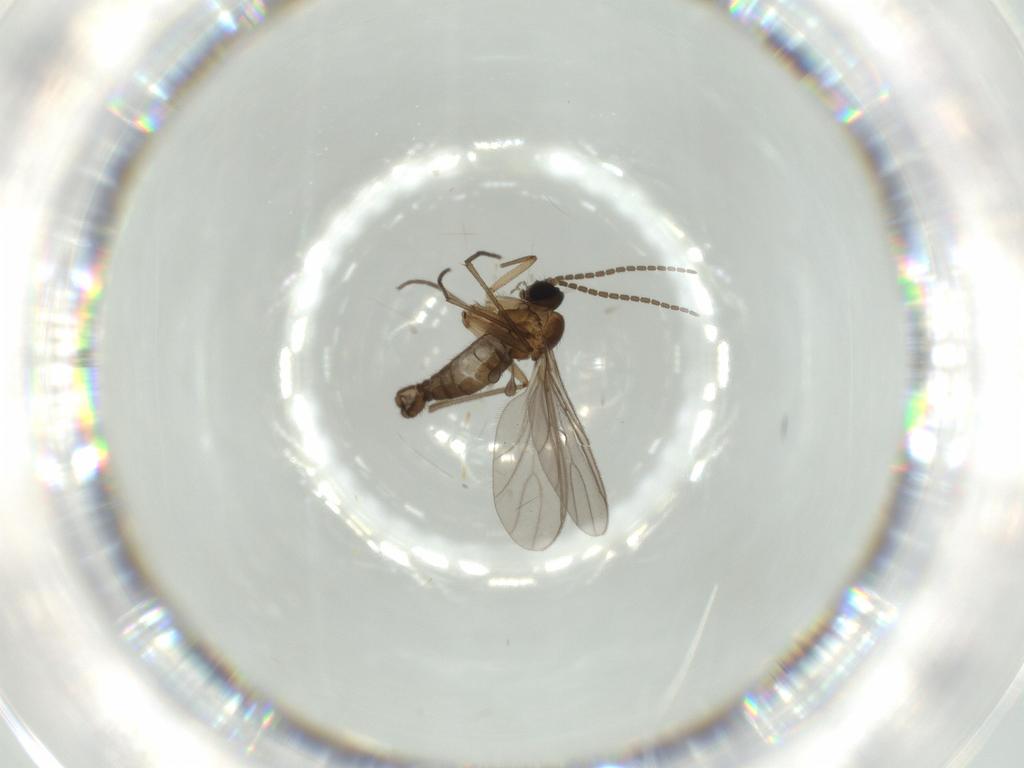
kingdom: Animalia
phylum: Arthropoda
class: Insecta
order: Diptera
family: Sciaridae
